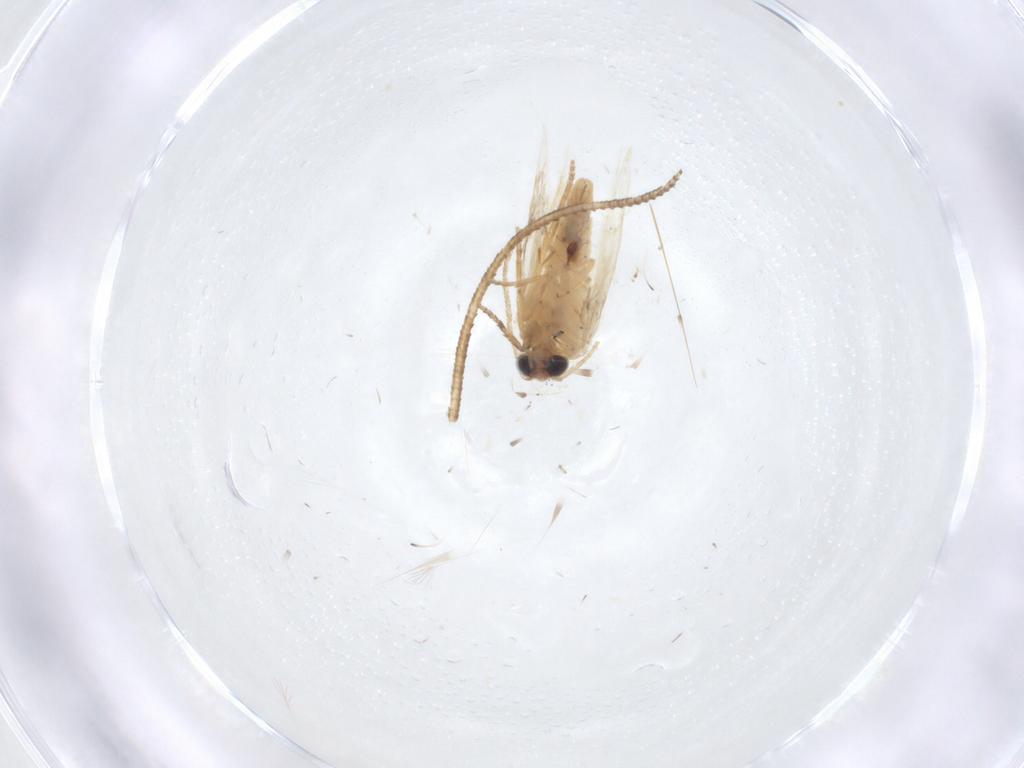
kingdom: Animalia
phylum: Arthropoda
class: Insecta
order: Lepidoptera
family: Nepticulidae
